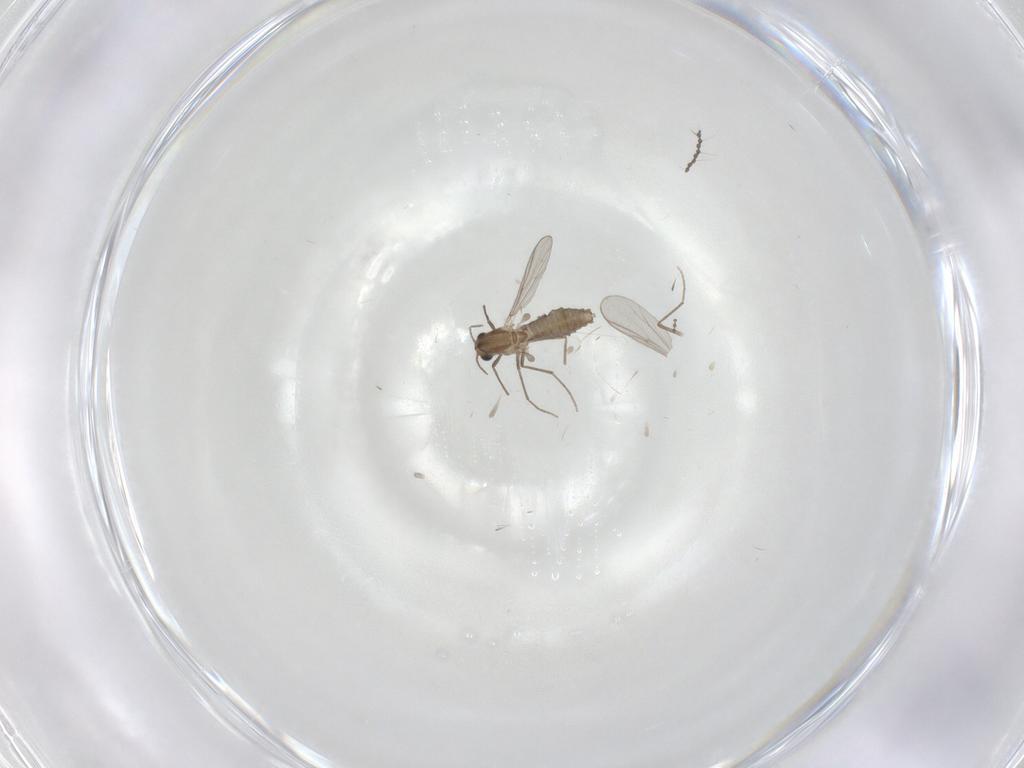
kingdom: Animalia
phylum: Arthropoda
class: Insecta
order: Diptera
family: Chironomidae
